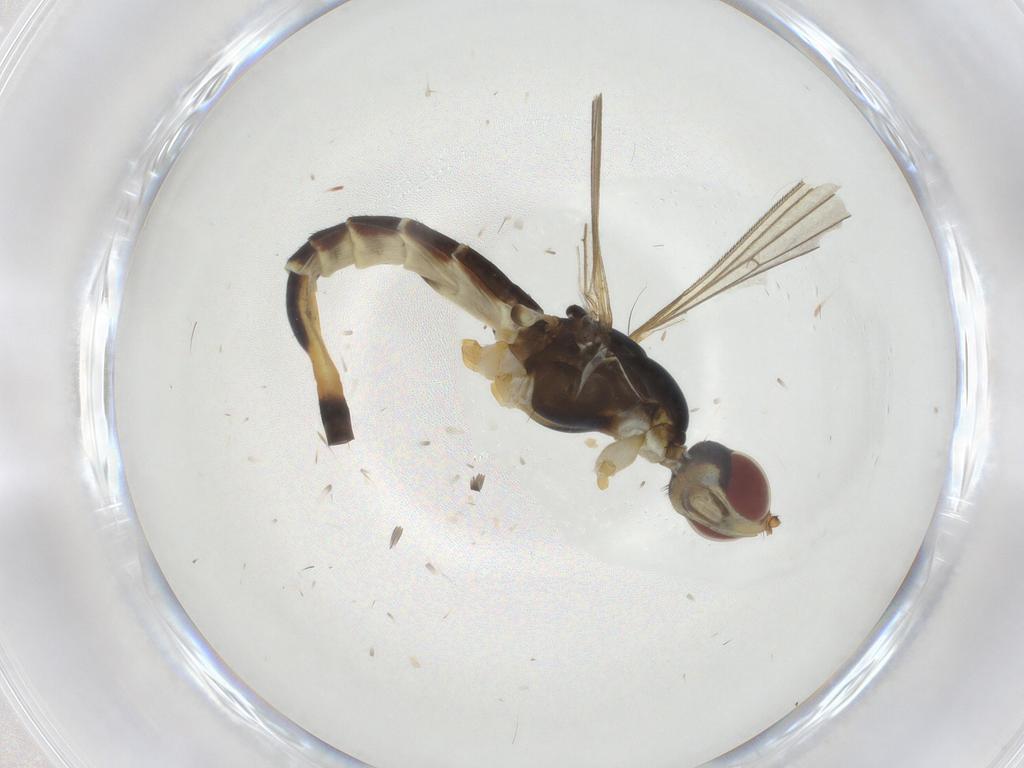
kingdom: Animalia
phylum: Arthropoda
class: Insecta
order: Diptera
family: Micropezidae
